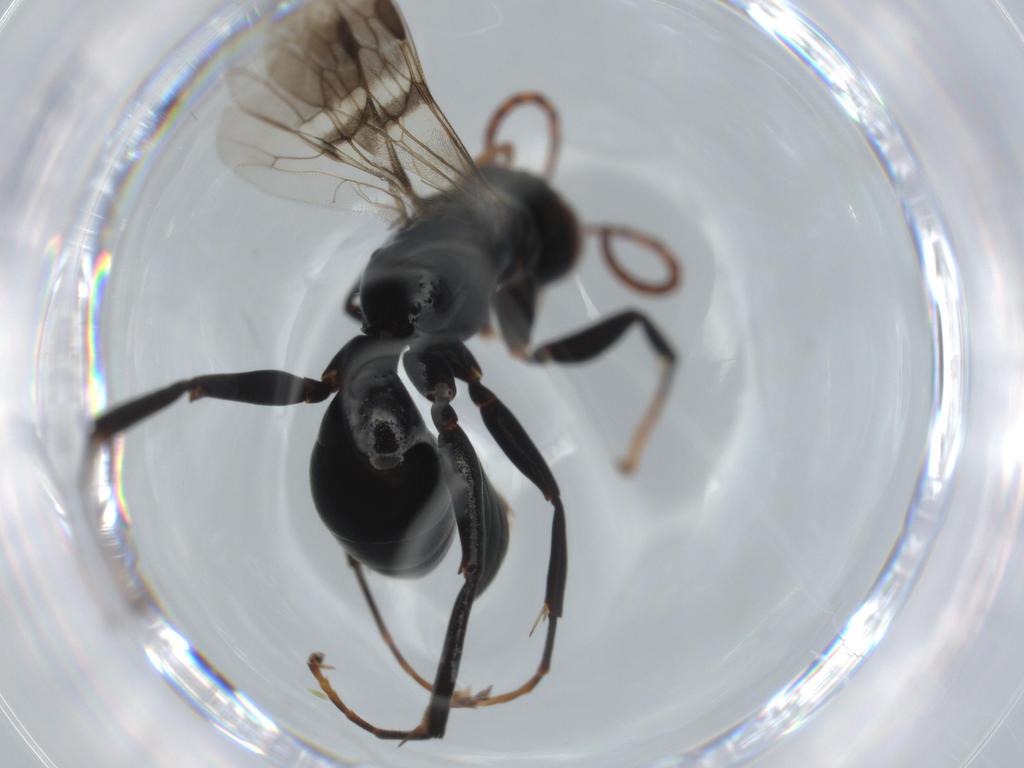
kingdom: Animalia
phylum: Arthropoda
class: Insecta
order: Hymenoptera
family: Pompilidae
